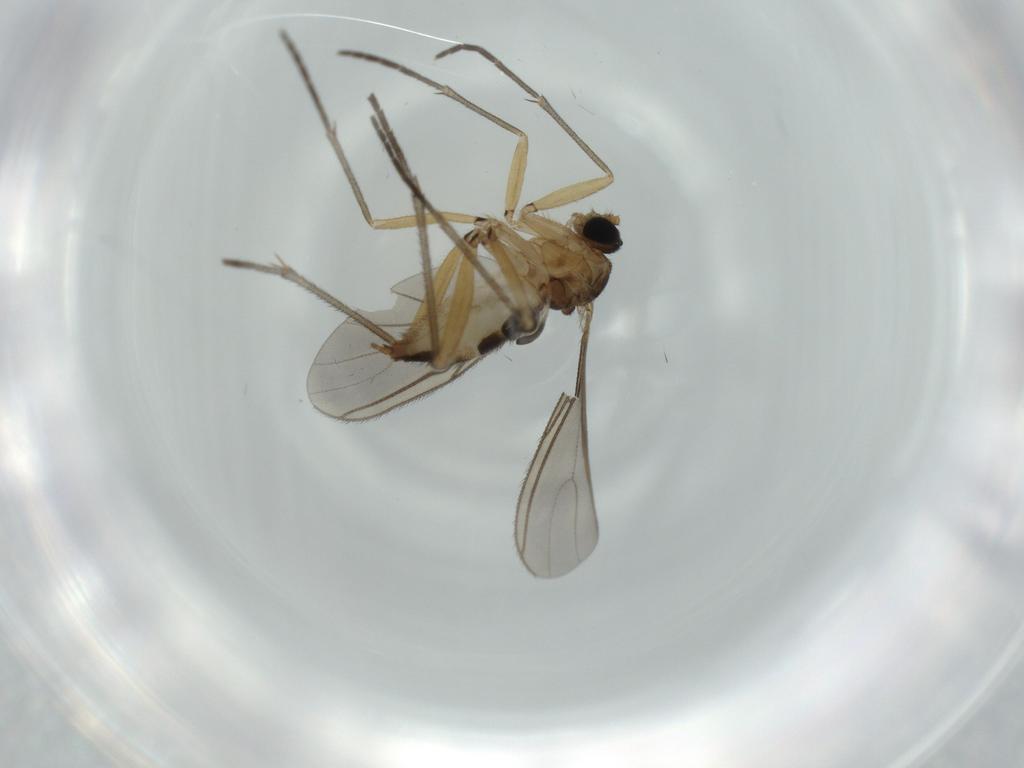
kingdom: Animalia
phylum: Arthropoda
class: Insecta
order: Diptera
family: Sciaridae
